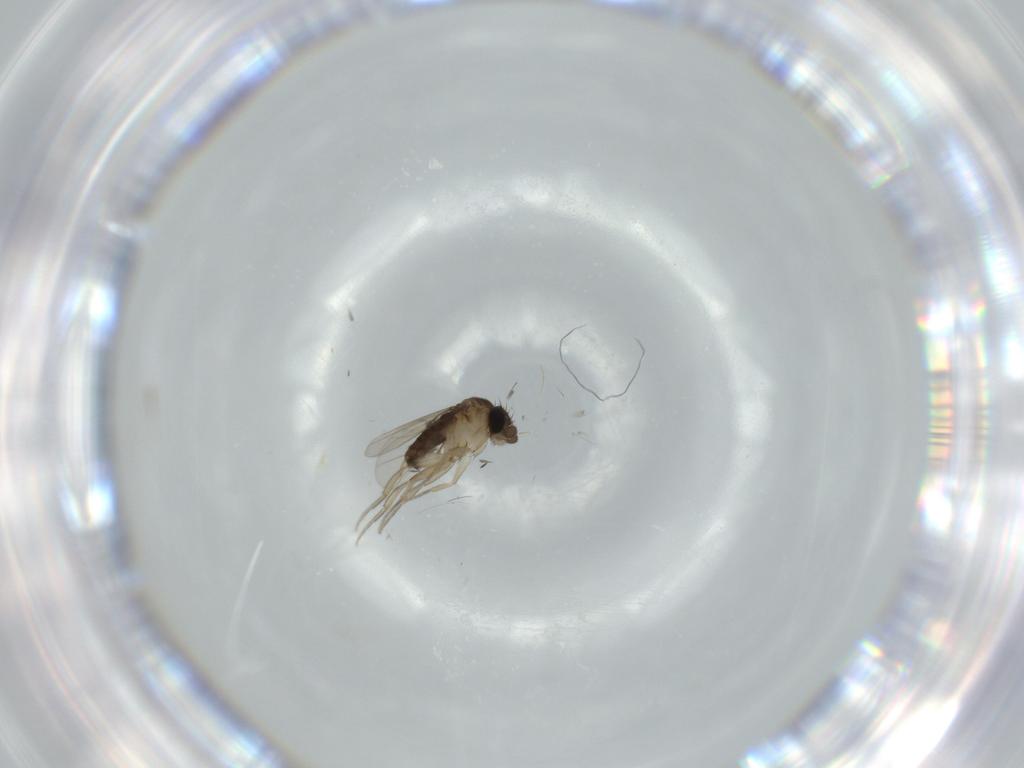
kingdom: Animalia
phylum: Arthropoda
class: Insecta
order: Diptera
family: Phoridae
